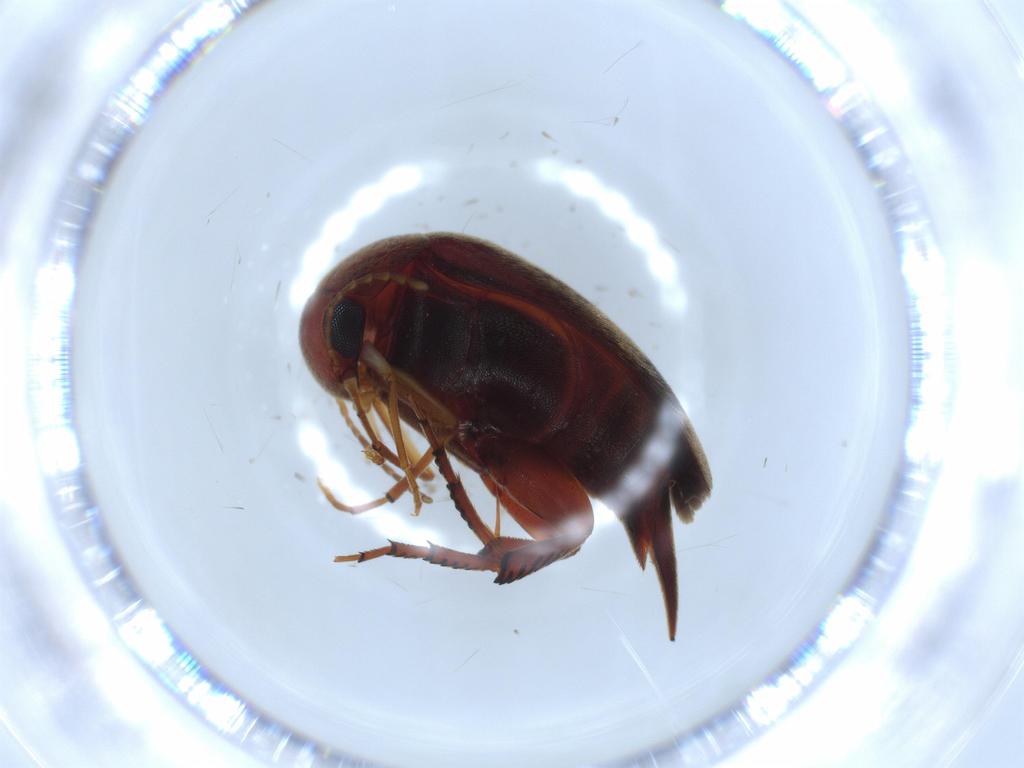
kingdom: Animalia
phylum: Arthropoda
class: Insecta
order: Coleoptera
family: Mordellidae
